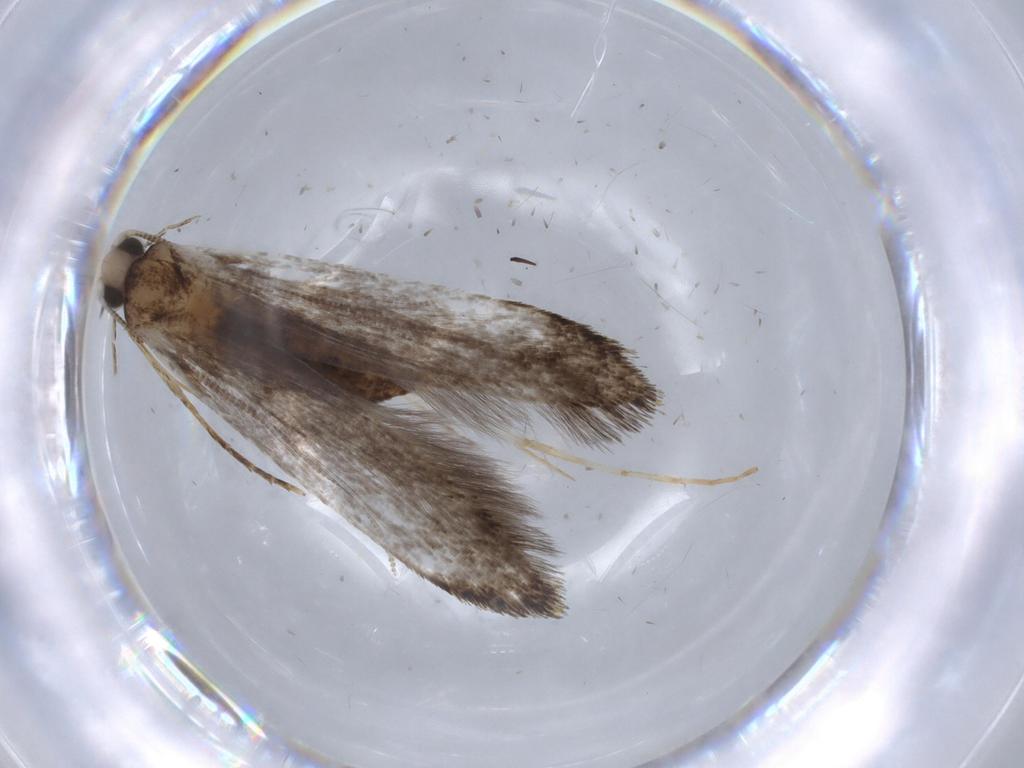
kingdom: Animalia
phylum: Arthropoda
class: Insecta
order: Lepidoptera
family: Tineidae
